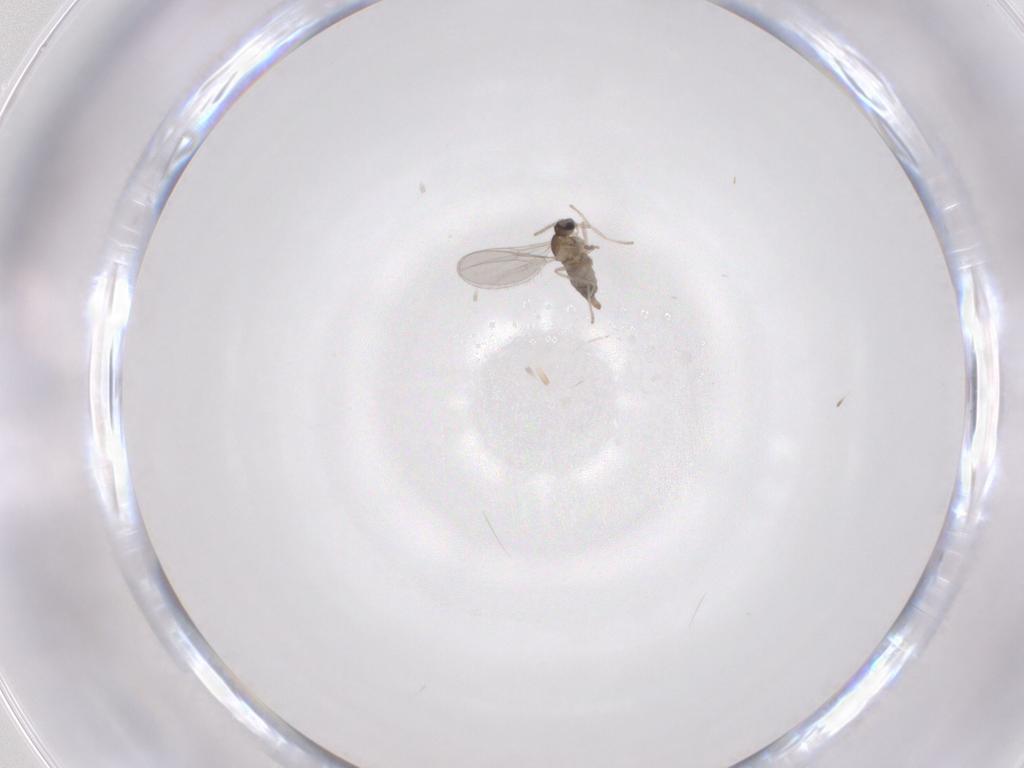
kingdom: Animalia
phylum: Arthropoda
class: Insecta
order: Diptera
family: Cecidomyiidae
